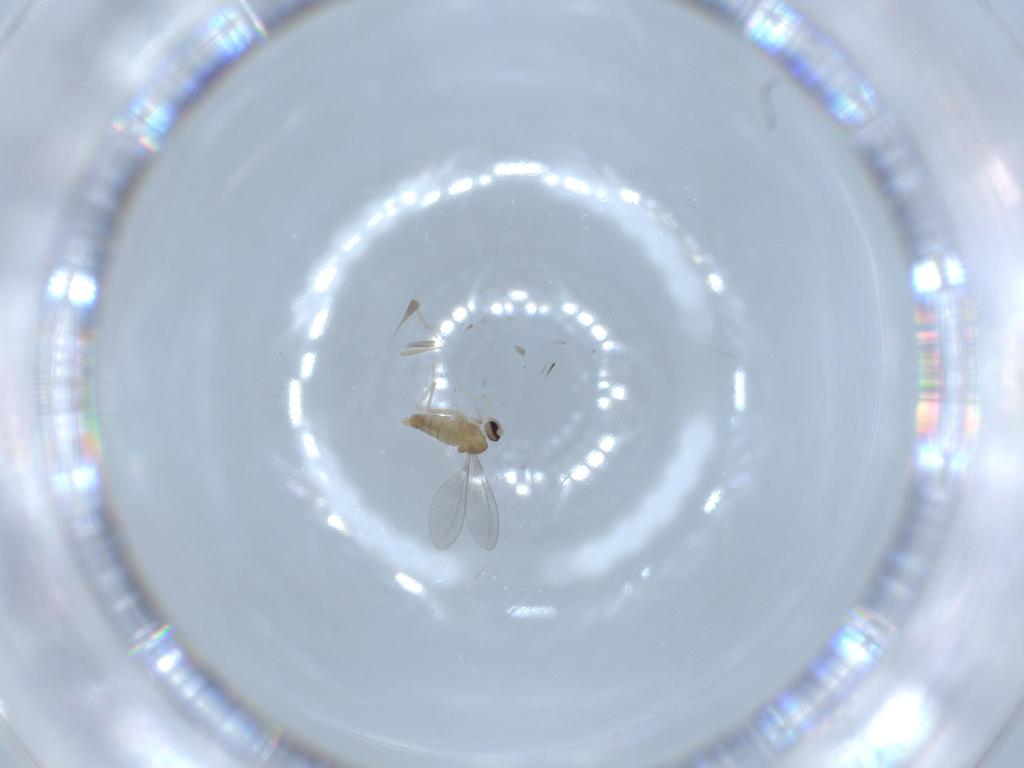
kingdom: Animalia
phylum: Arthropoda
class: Insecta
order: Diptera
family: Cecidomyiidae
